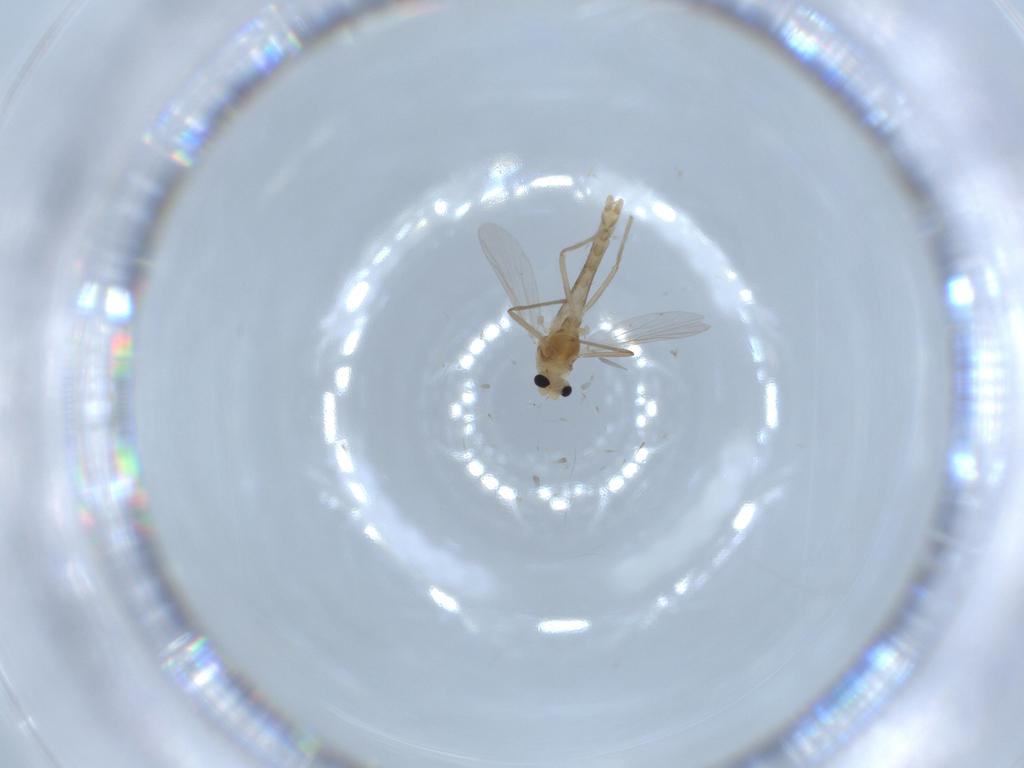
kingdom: Animalia
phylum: Arthropoda
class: Insecta
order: Diptera
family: Chironomidae
